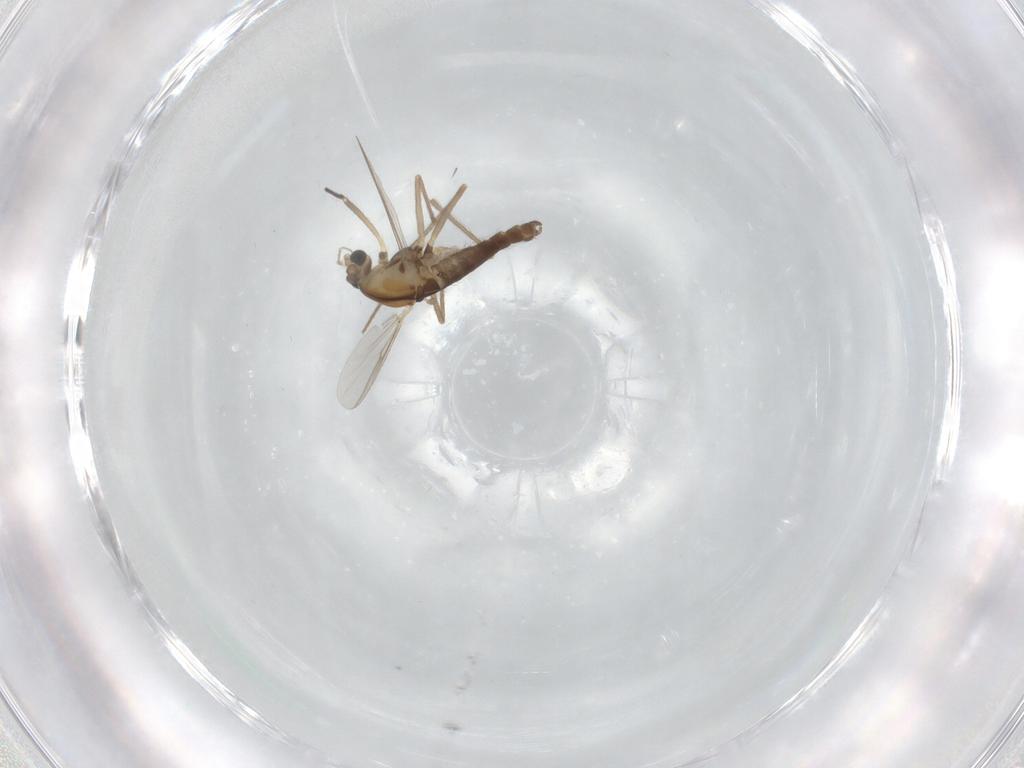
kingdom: Animalia
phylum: Arthropoda
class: Insecta
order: Diptera
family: Chironomidae
